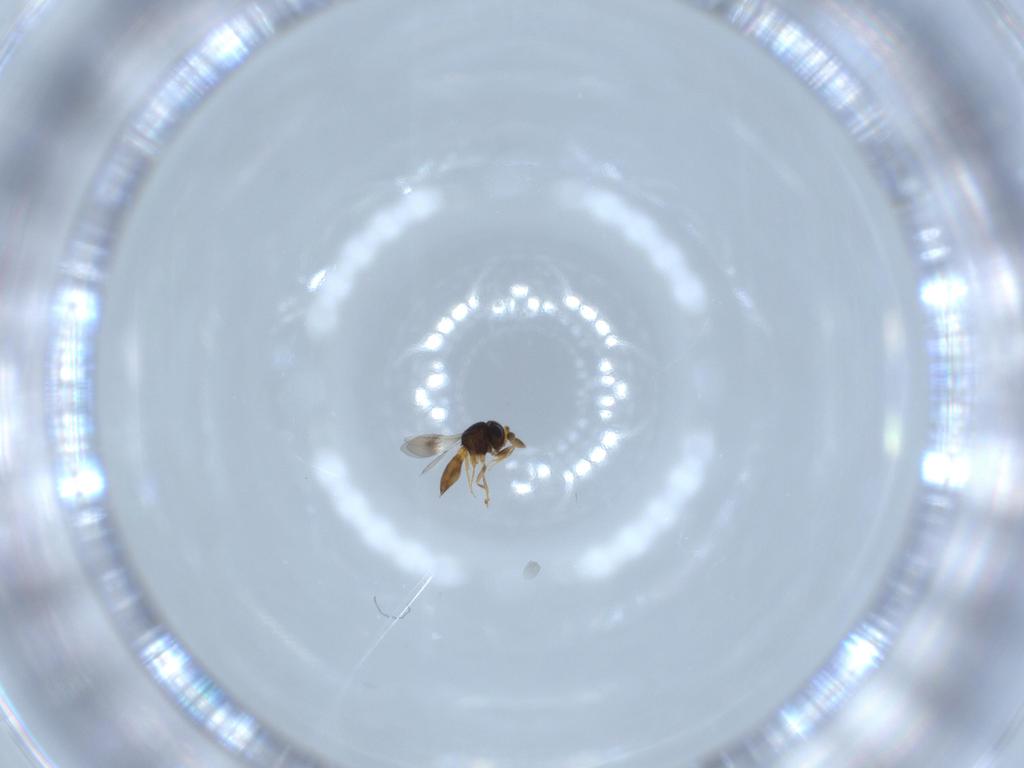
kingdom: Animalia
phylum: Arthropoda
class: Insecta
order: Hymenoptera
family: Scelionidae
